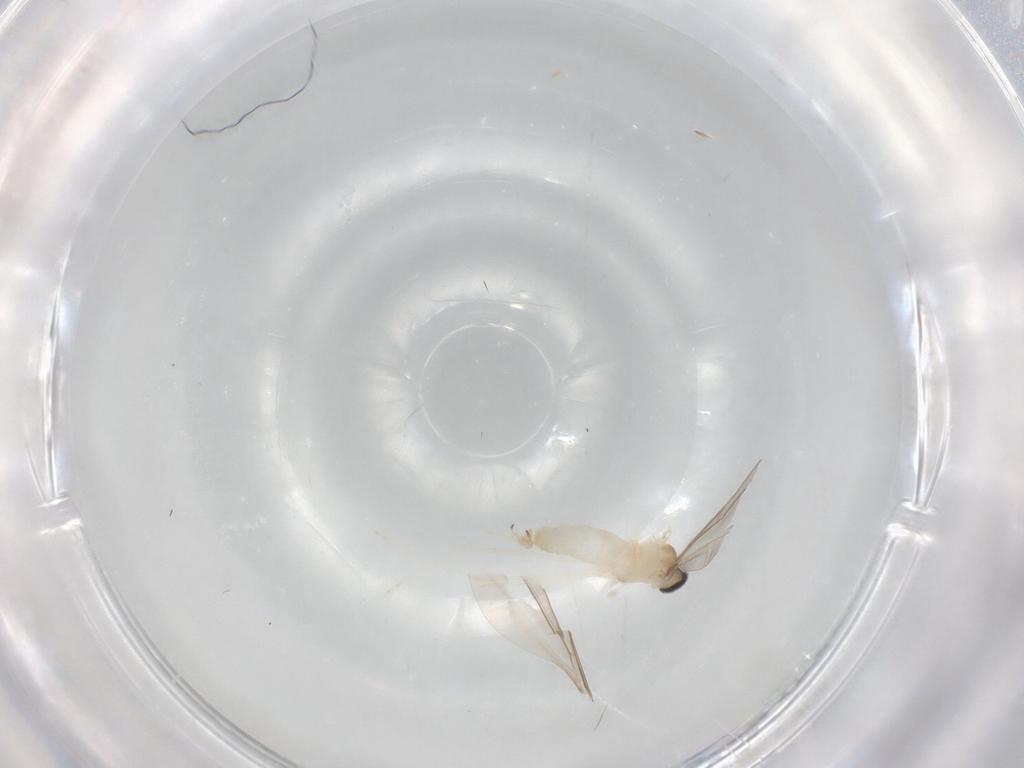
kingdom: Animalia
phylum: Arthropoda
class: Insecta
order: Diptera
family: Cecidomyiidae
